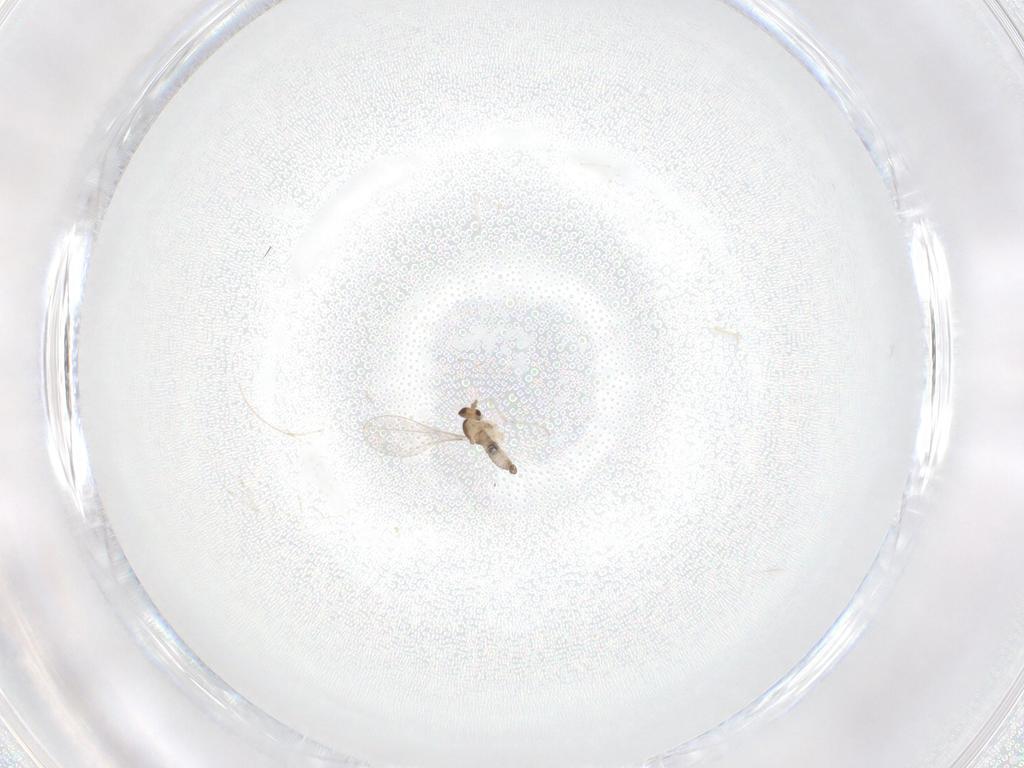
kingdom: Animalia
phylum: Arthropoda
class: Insecta
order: Diptera
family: Cecidomyiidae
